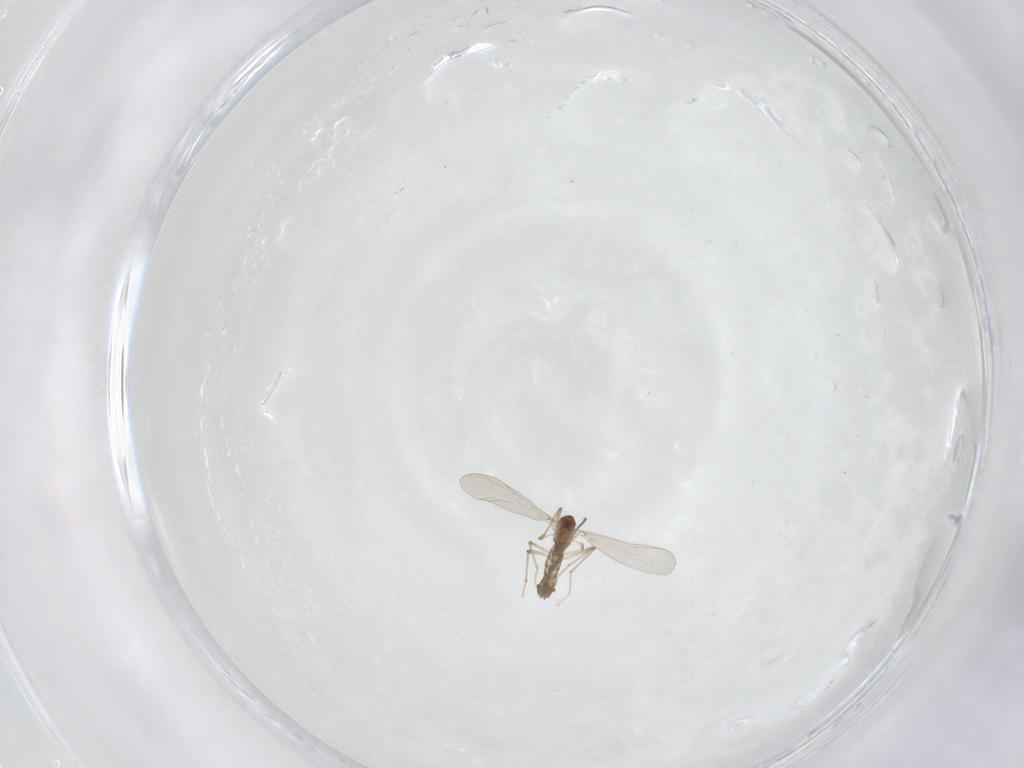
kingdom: Animalia
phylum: Arthropoda
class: Insecta
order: Diptera
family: Chironomidae
